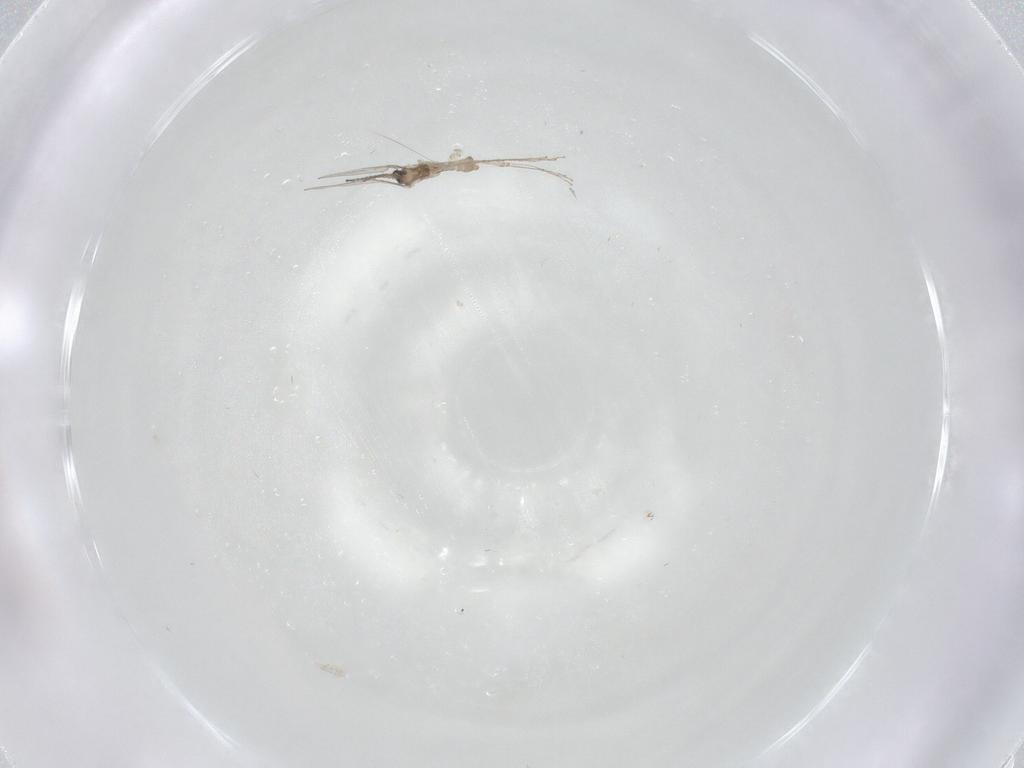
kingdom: Animalia
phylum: Arthropoda
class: Insecta
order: Diptera
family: Cecidomyiidae
